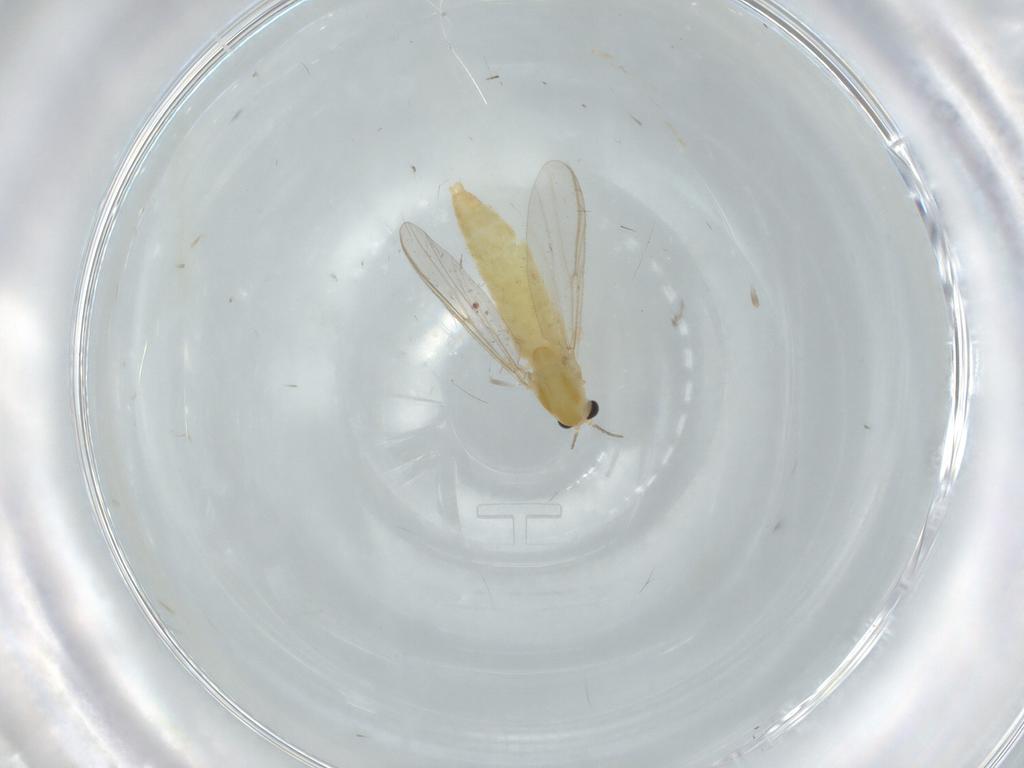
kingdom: Animalia
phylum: Arthropoda
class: Insecta
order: Diptera
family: Chironomidae
